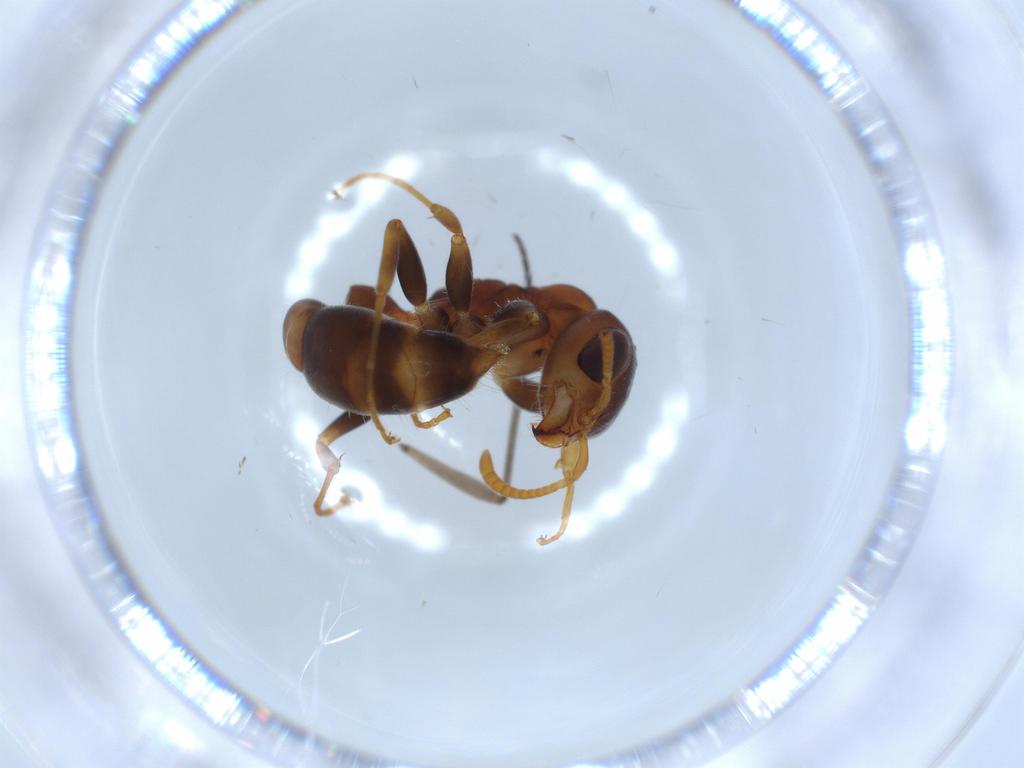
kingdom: Animalia
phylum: Arthropoda
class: Insecta
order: Hymenoptera
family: Formicidae
